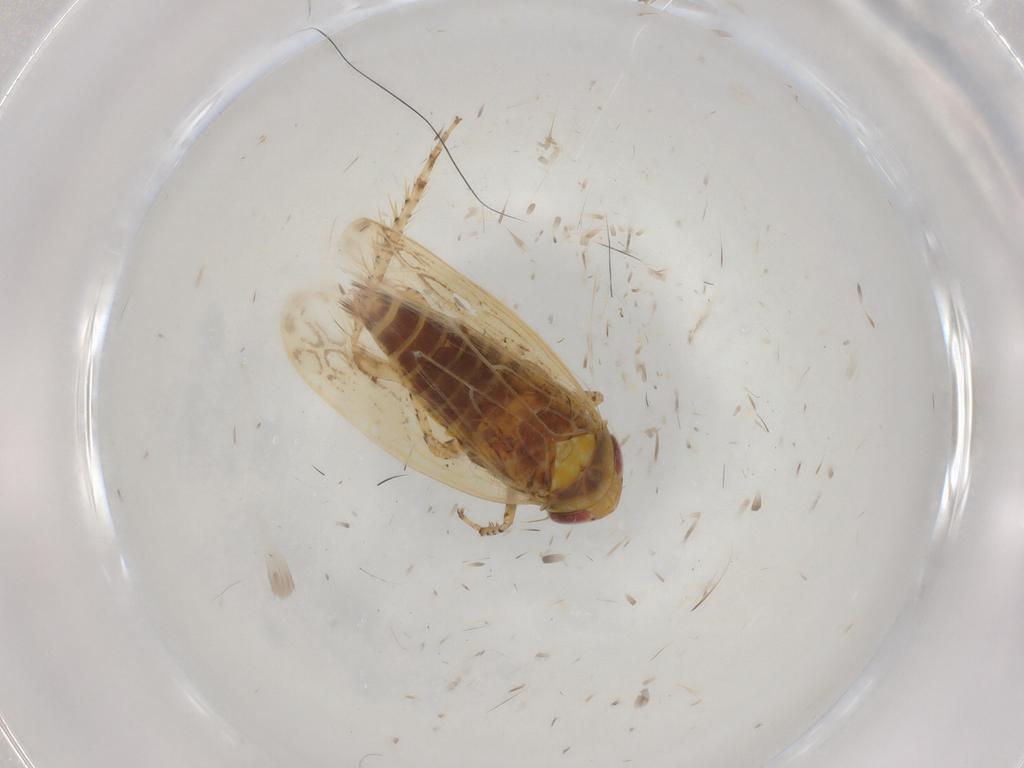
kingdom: Animalia
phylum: Arthropoda
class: Insecta
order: Hemiptera
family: Cicadellidae
